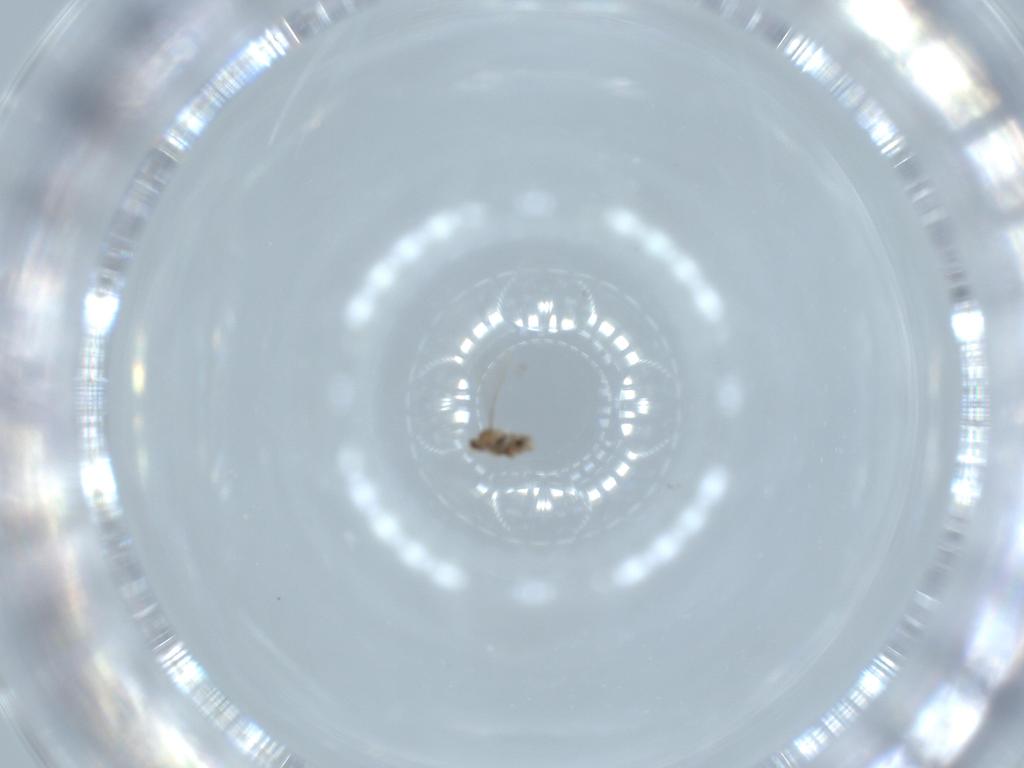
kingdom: Animalia
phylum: Arthropoda
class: Insecta
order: Diptera
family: Cecidomyiidae
